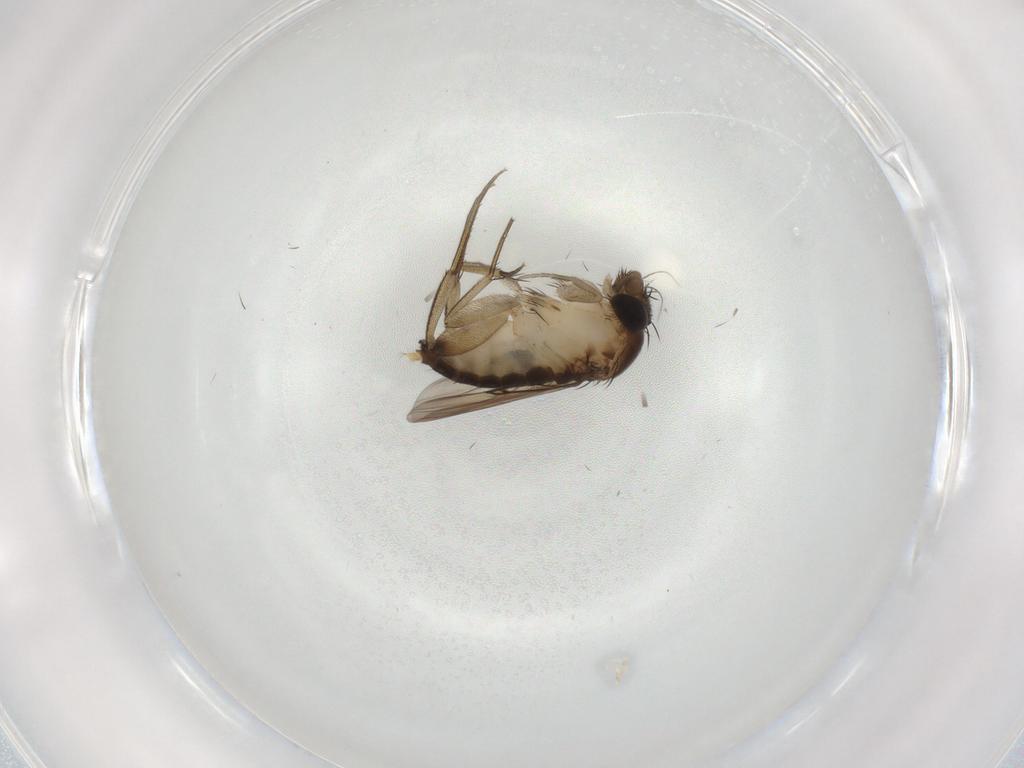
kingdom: Animalia
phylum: Arthropoda
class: Insecta
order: Diptera
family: Phoridae
